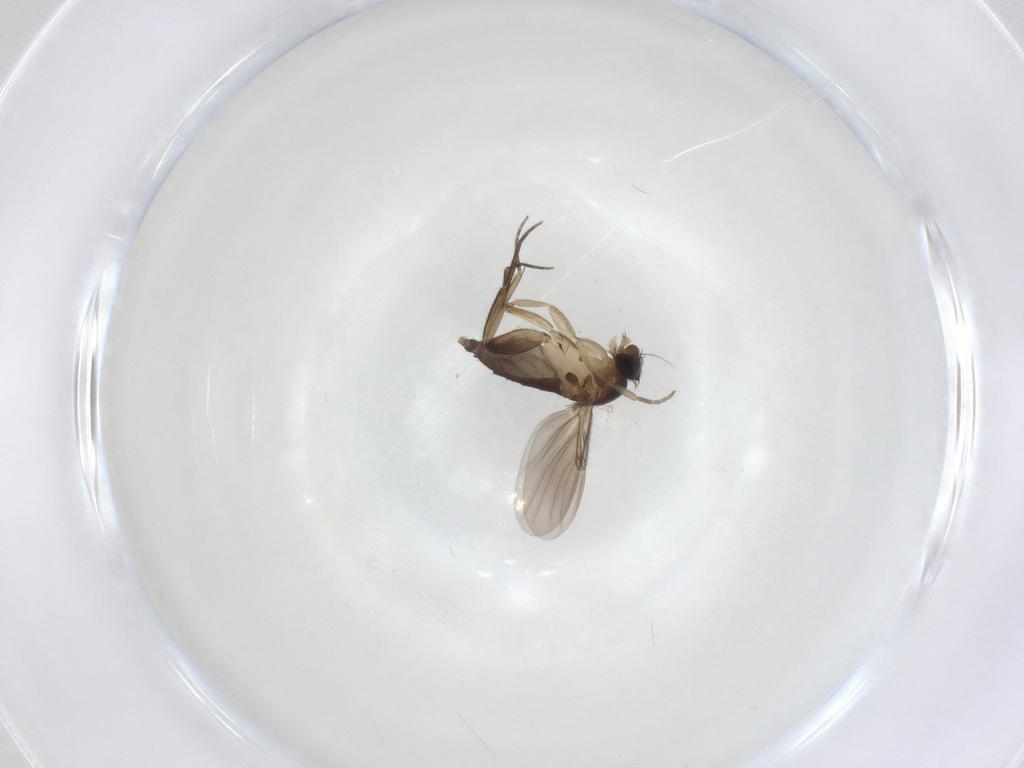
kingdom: Animalia
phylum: Arthropoda
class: Insecta
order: Diptera
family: Phoridae
